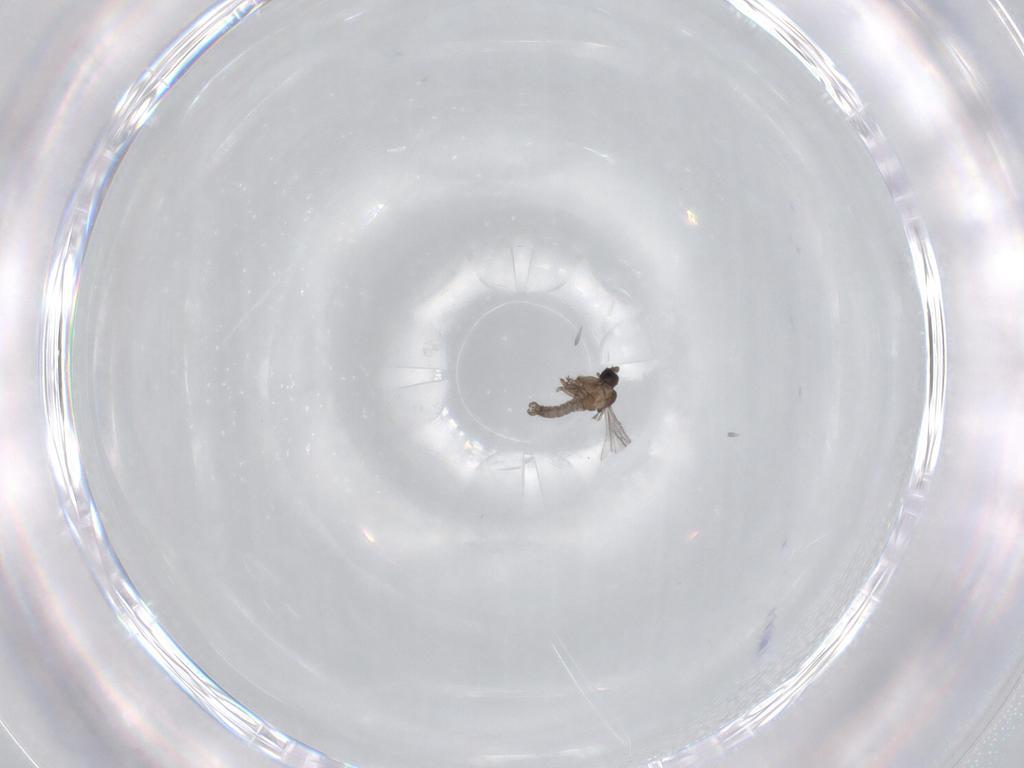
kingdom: Animalia
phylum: Arthropoda
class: Insecta
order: Diptera
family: Sciaridae
